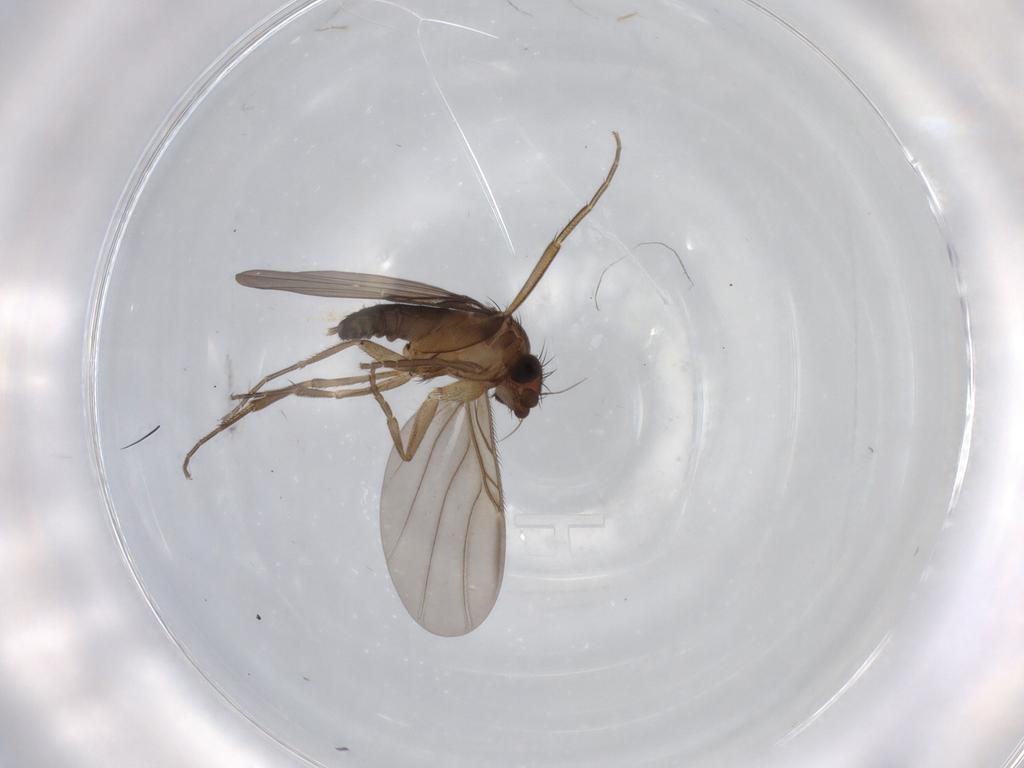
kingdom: Animalia
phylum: Arthropoda
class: Insecta
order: Diptera
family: Phoridae
